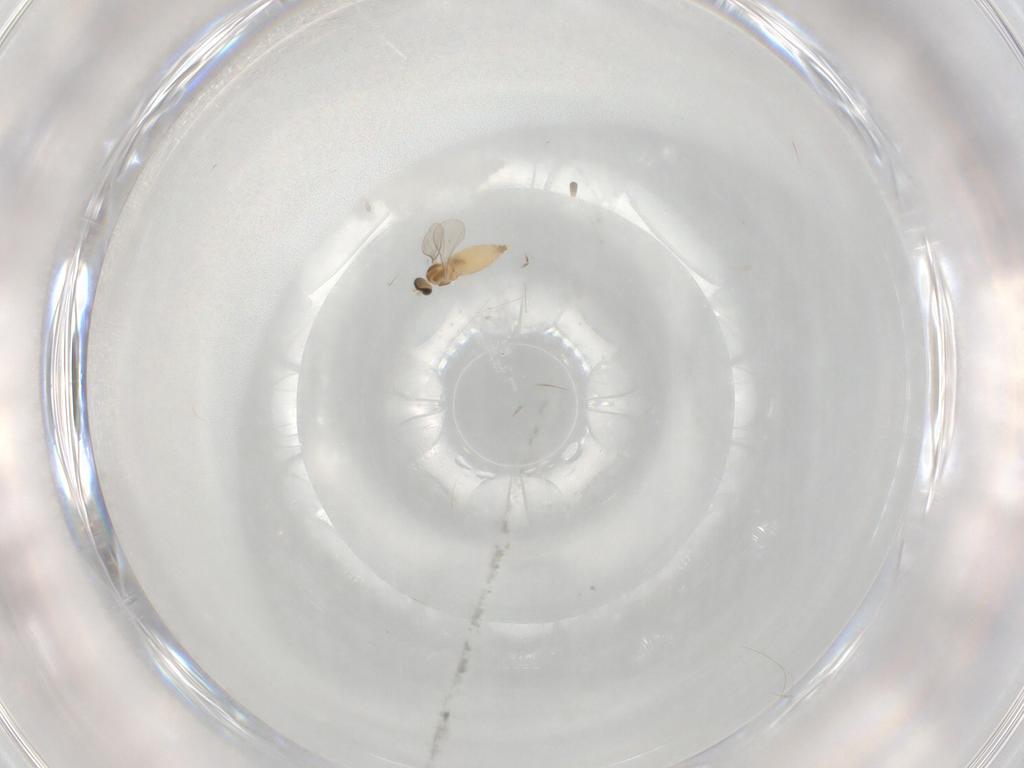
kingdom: Animalia
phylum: Arthropoda
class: Insecta
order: Diptera
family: Cecidomyiidae
